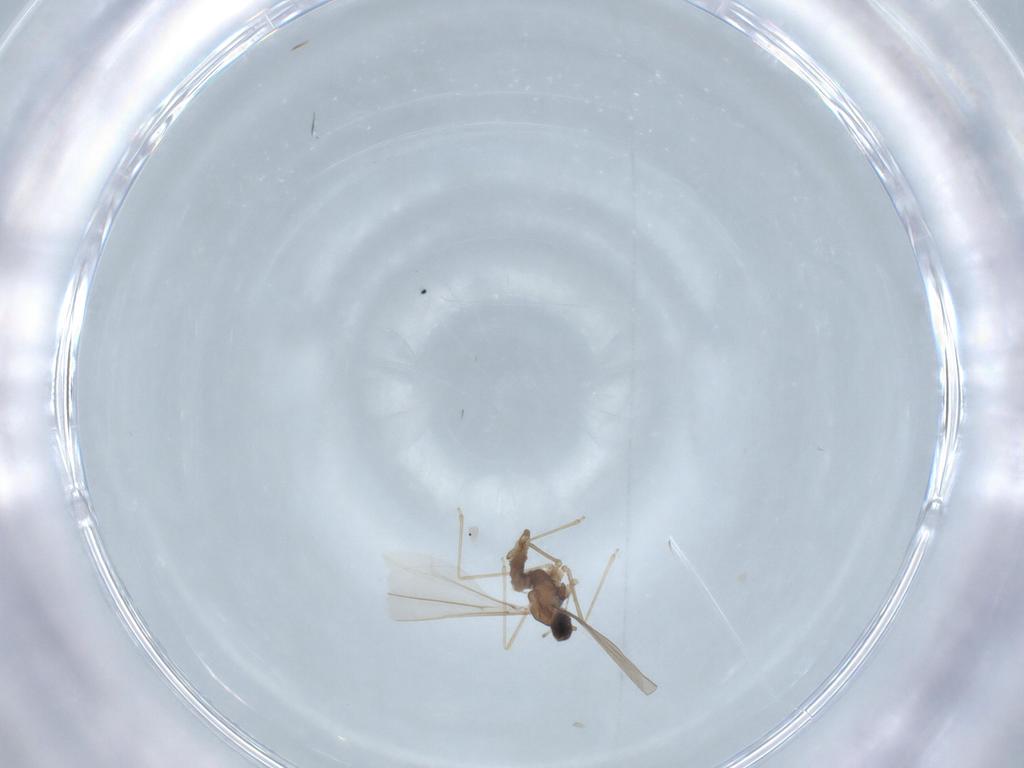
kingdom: Animalia
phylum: Arthropoda
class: Insecta
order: Diptera
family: Cecidomyiidae
